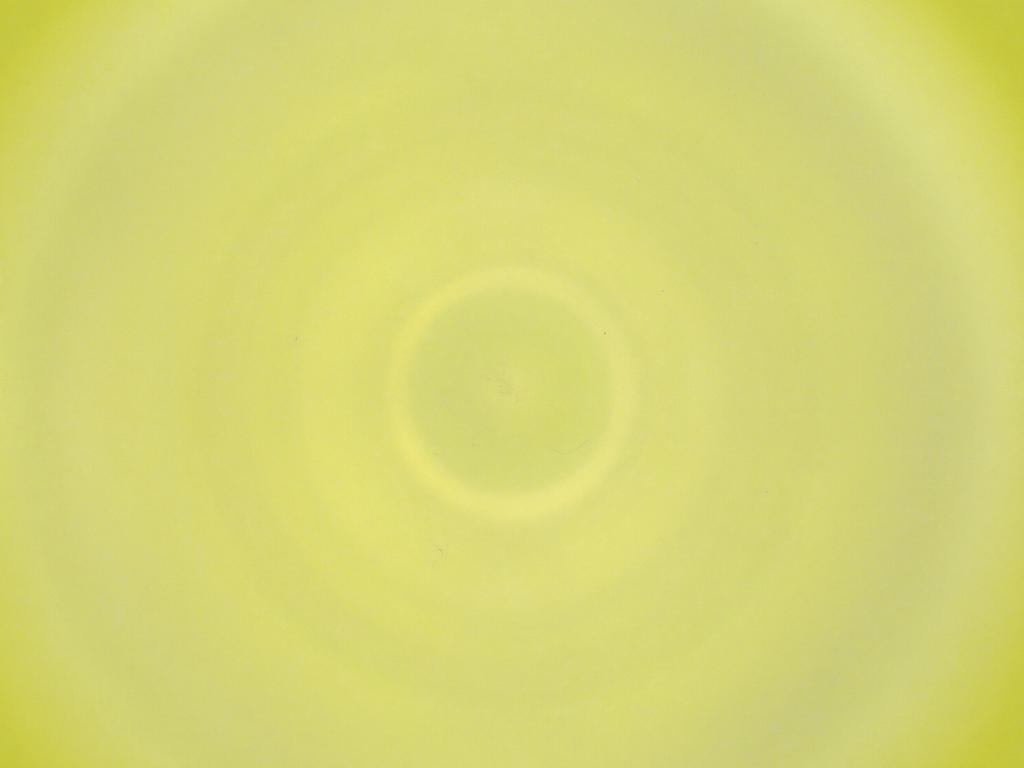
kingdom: Animalia
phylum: Arthropoda
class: Insecta
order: Diptera
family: Cecidomyiidae
